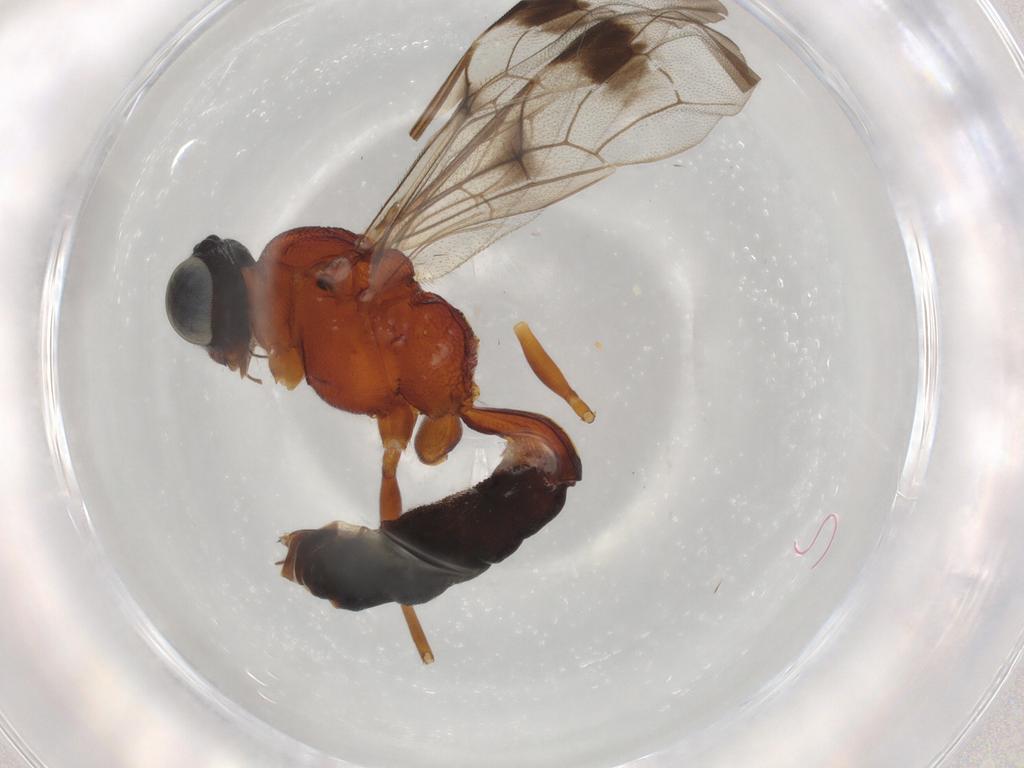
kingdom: Animalia
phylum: Arthropoda
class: Insecta
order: Hymenoptera
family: Ichneumonidae
